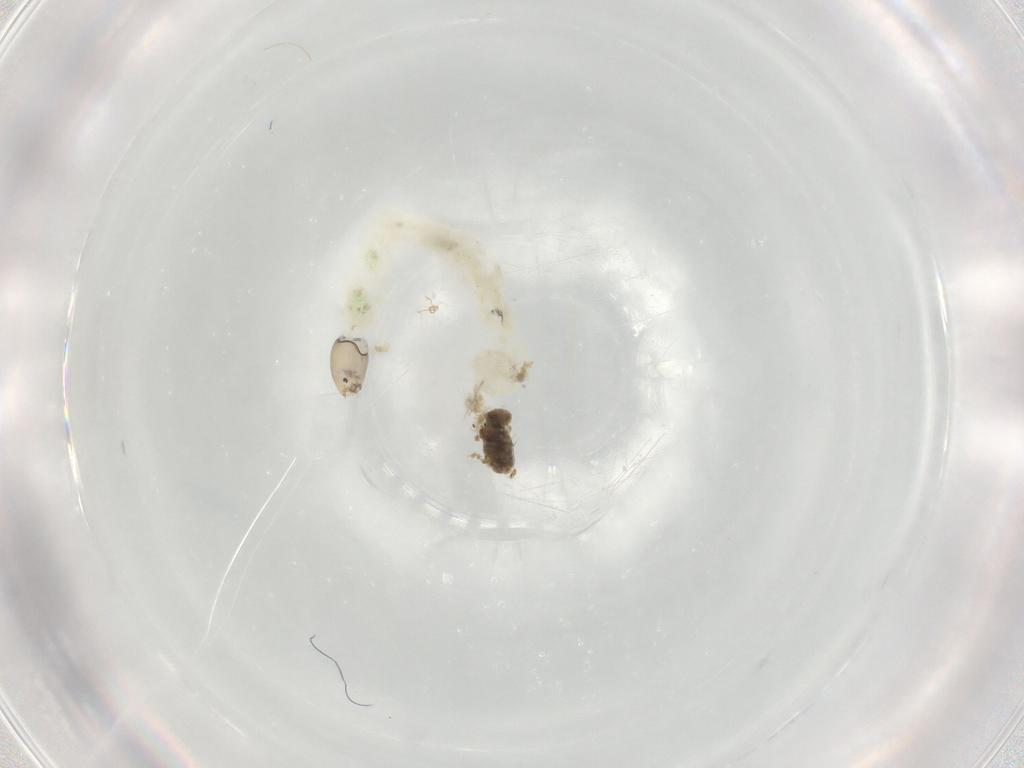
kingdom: Animalia
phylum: Arthropoda
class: Insecta
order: Diptera
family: Chironomidae
